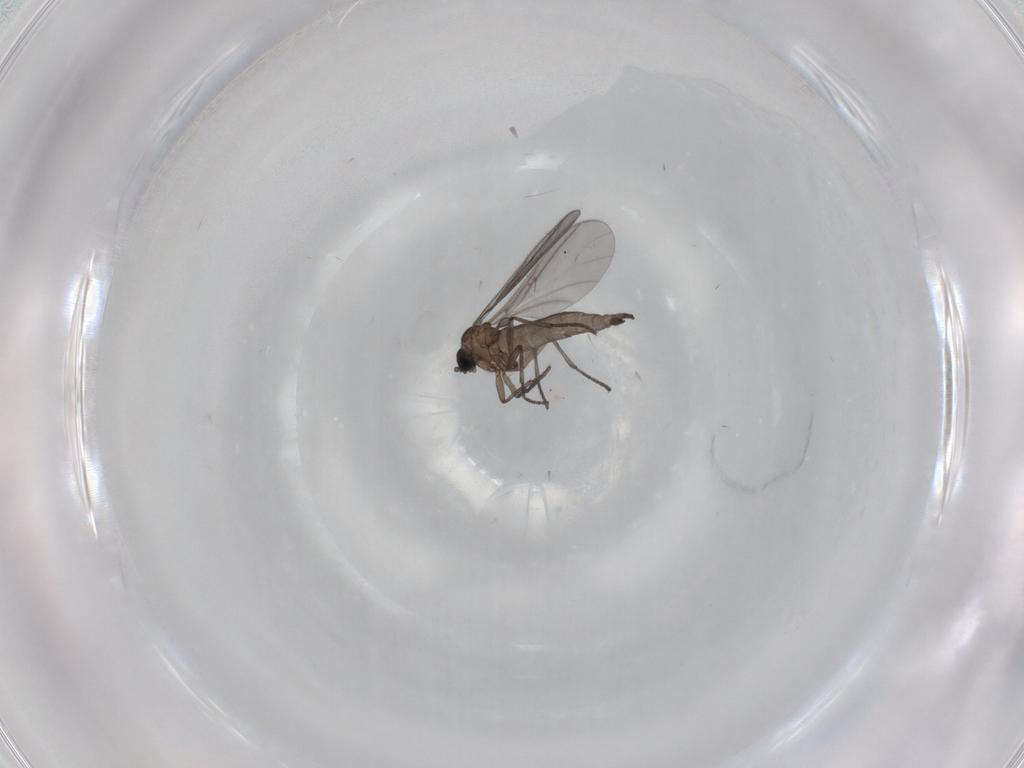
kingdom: Animalia
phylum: Arthropoda
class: Insecta
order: Diptera
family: Sciaridae
